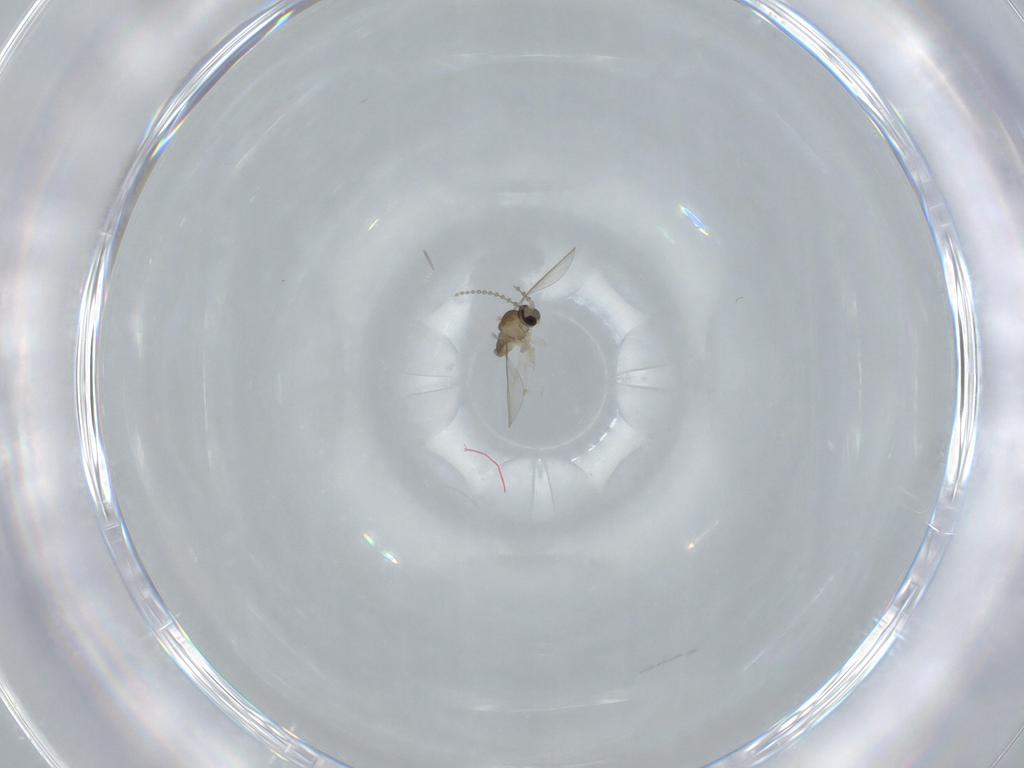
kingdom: Animalia
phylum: Arthropoda
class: Insecta
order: Diptera
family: Cecidomyiidae
